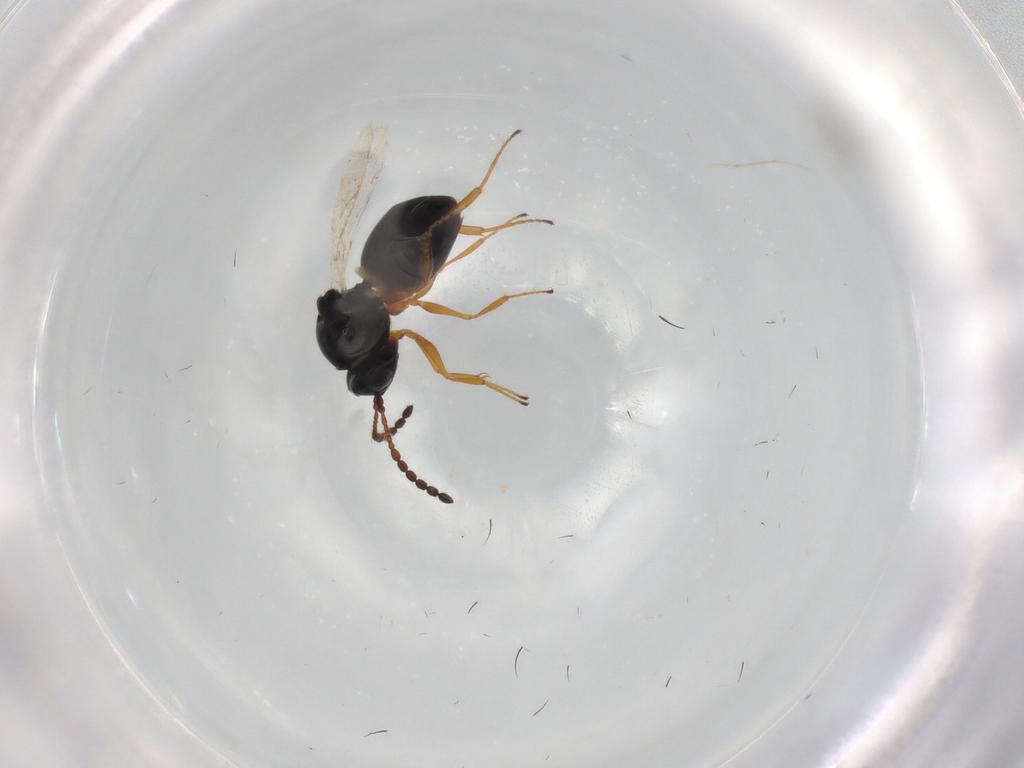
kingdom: Animalia
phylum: Arthropoda
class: Insecta
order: Hymenoptera
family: Figitidae
